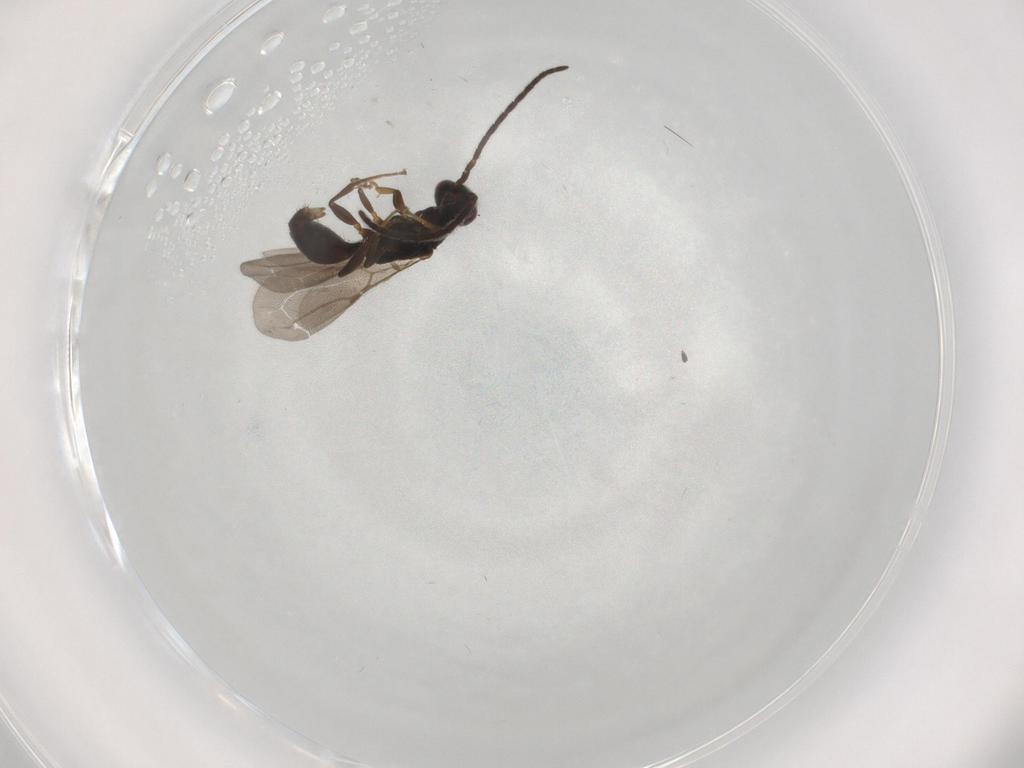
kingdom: Animalia
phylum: Arthropoda
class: Insecta
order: Hymenoptera
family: Bethylidae
